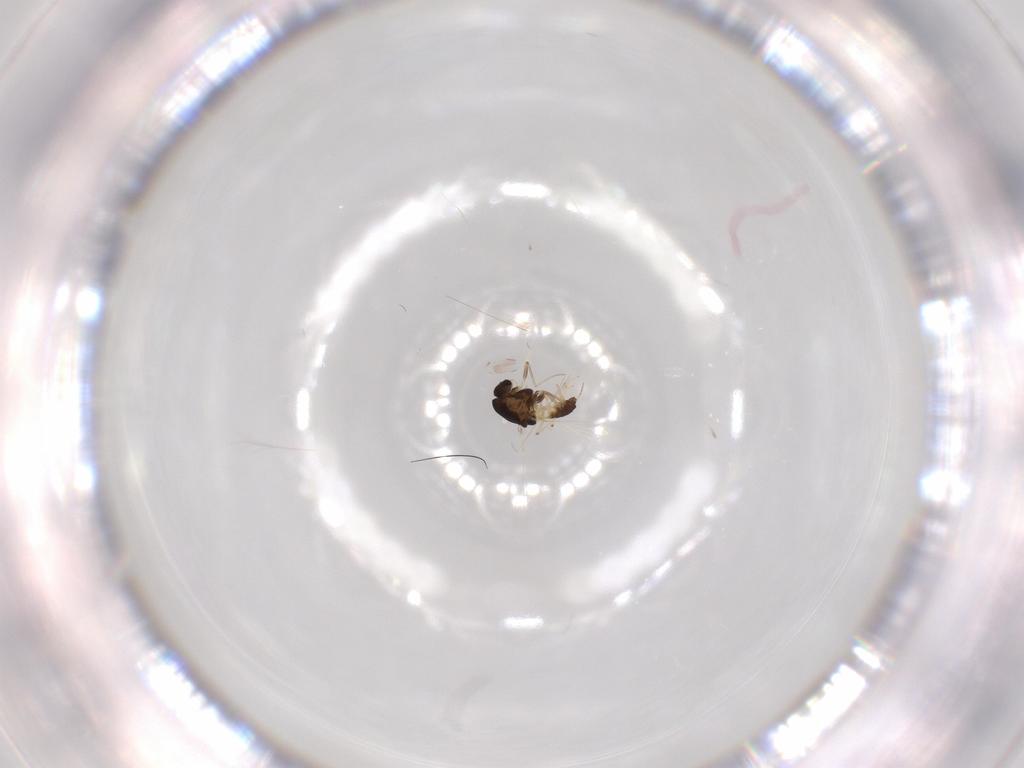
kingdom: Animalia
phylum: Arthropoda
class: Insecta
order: Diptera
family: Chironomidae
